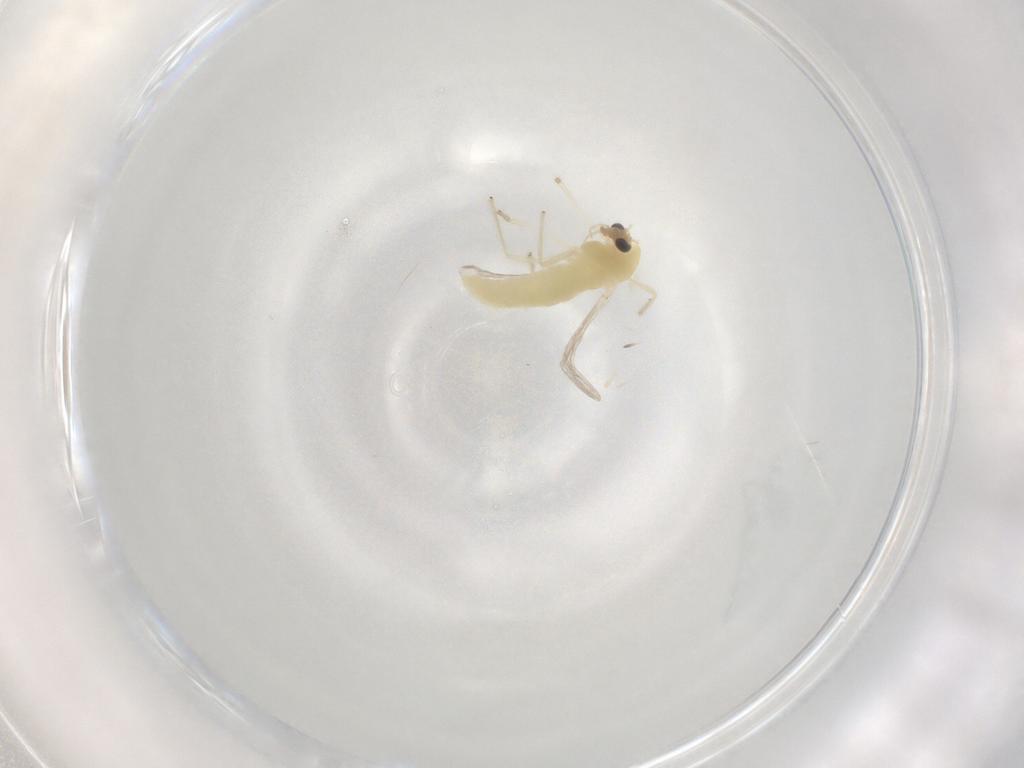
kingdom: Animalia
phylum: Arthropoda
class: Insecta
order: Diptera
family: Chironomidae
